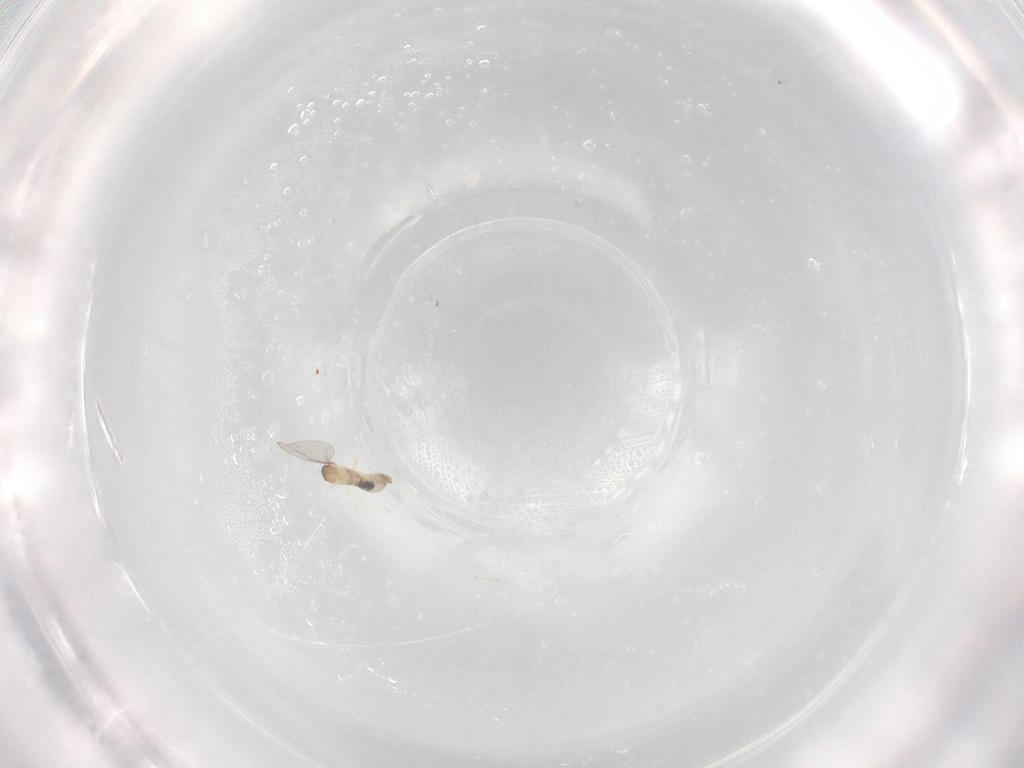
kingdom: Animalia
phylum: Arthropoda
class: Insecta
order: Diptera
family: Cecidomyiidae
